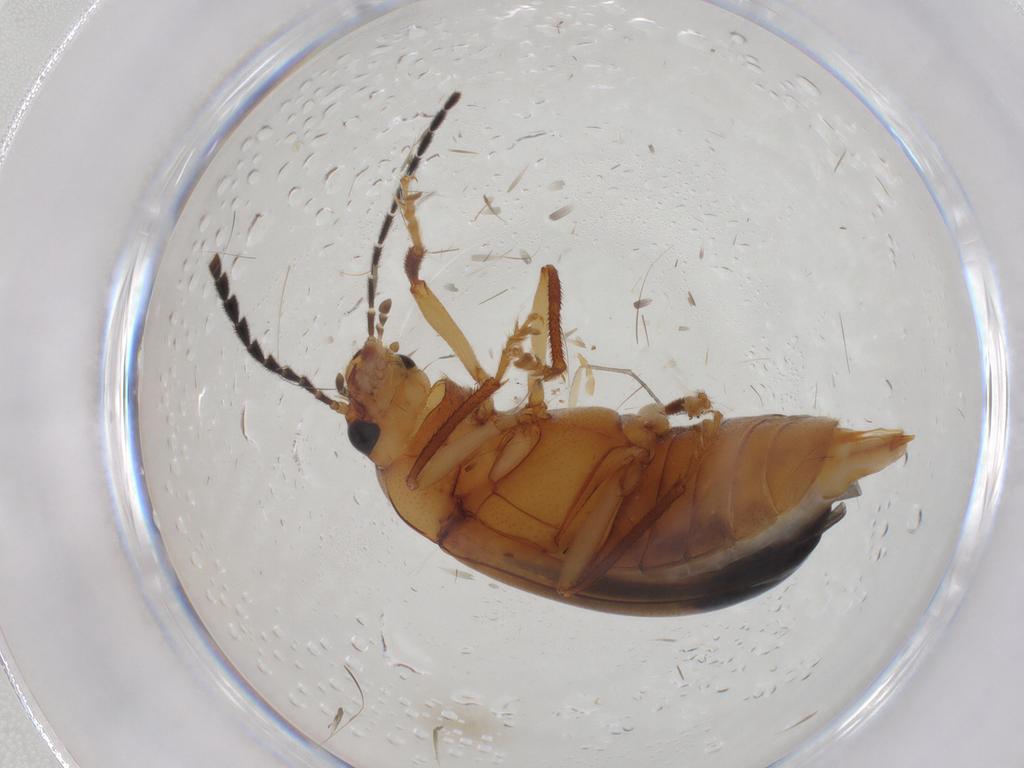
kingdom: Animalia
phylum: Arthropoda
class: Insecta
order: Coleoptera
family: Ptilodactylidae
